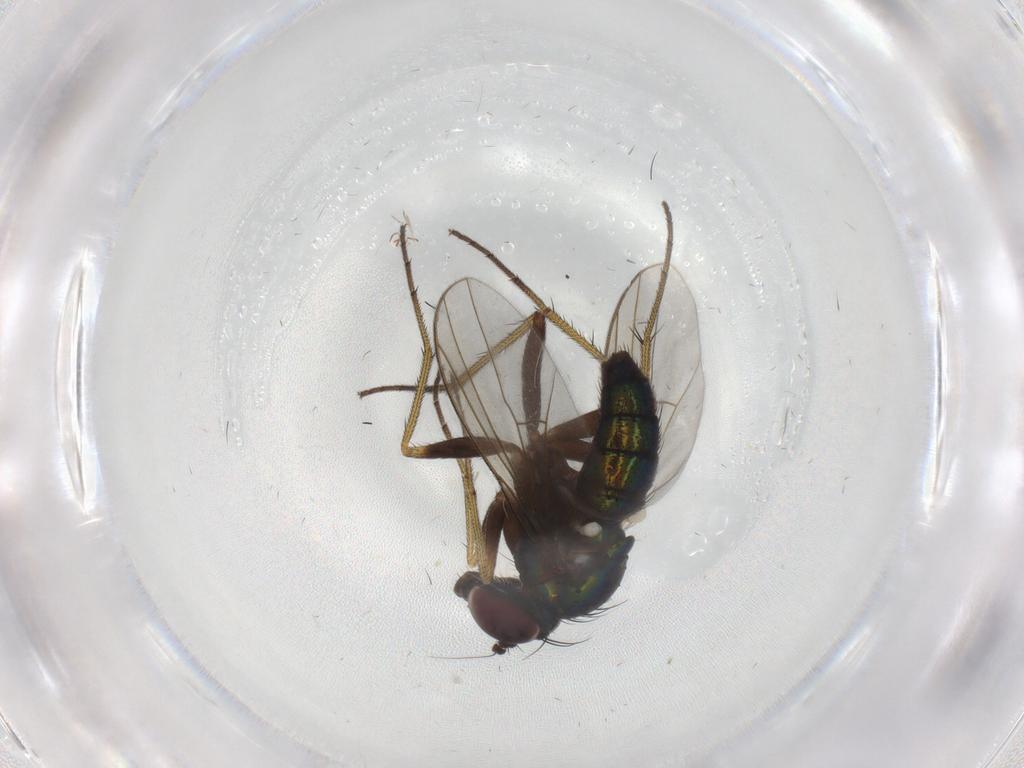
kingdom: Animalia
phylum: Arthropoda
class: Insecta
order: Diptera
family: Dolichopodidae
